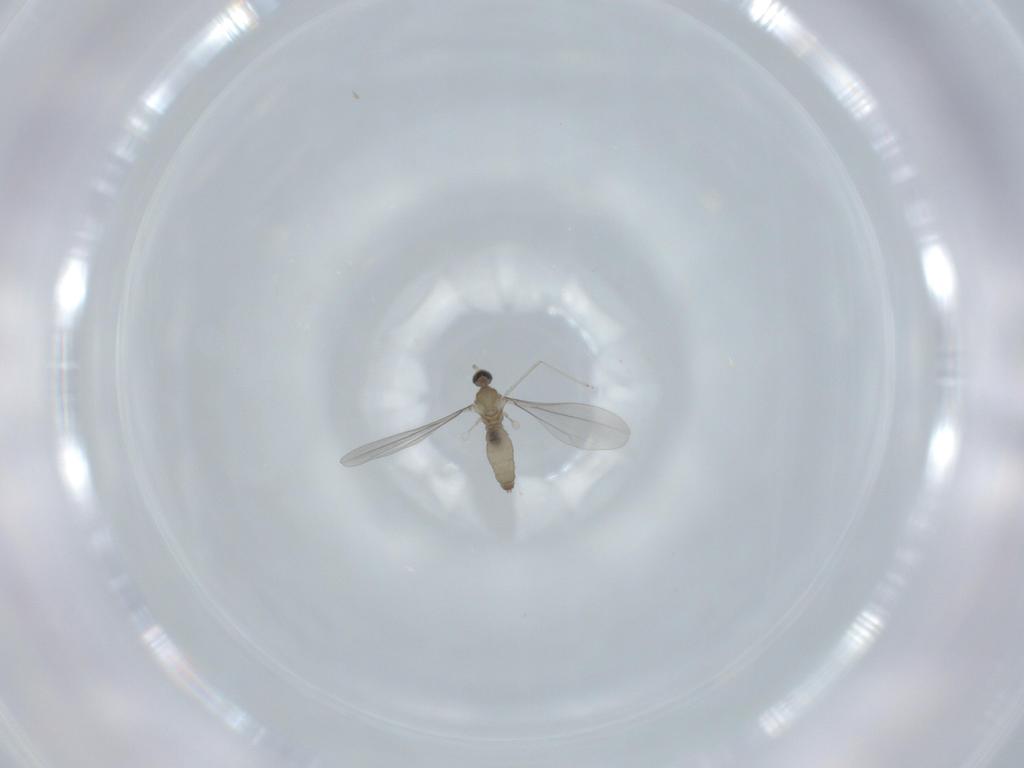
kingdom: Animalia
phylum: Arthropoda
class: Insecta
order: Diptera
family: Cecidomyiidae
